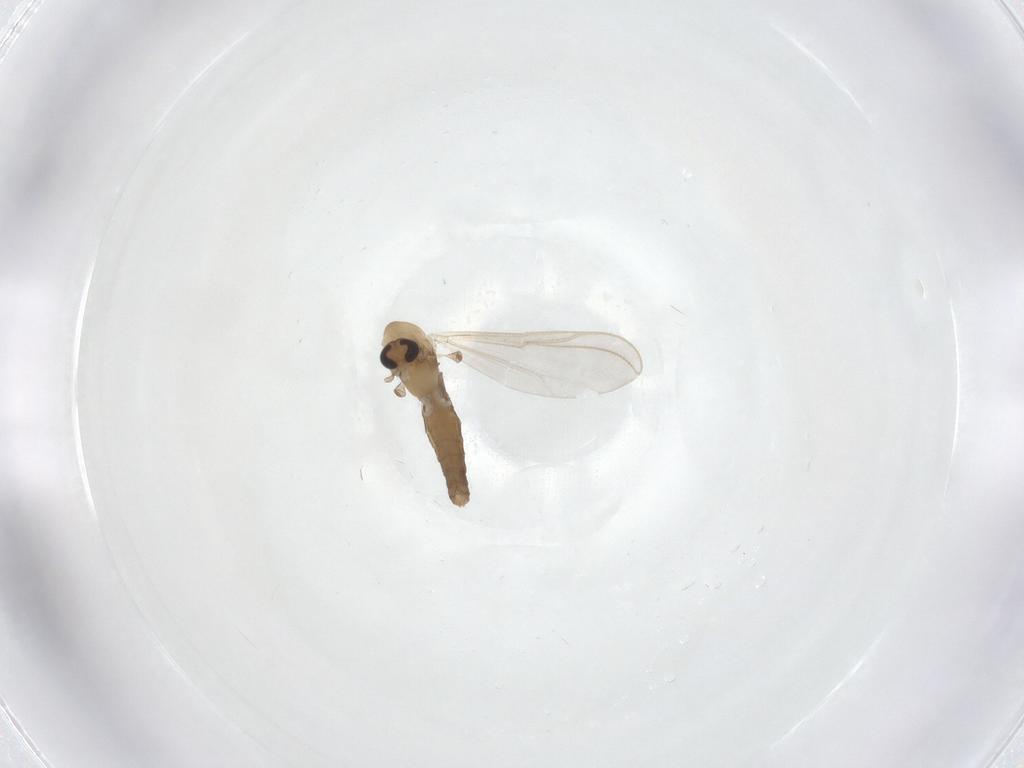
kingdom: Animalia
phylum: Arthropoda
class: Insecta
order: Diptera
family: Chironomidae
